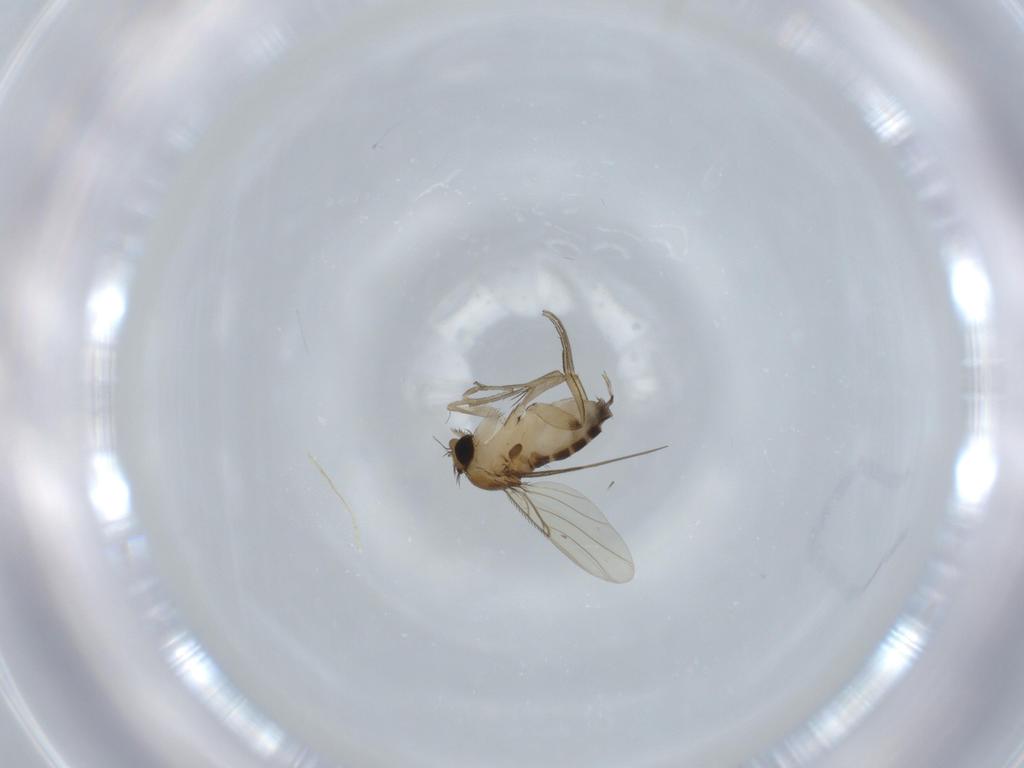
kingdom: Animalia
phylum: Arthropoda
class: Insecta
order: Diptera
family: Phoridae
